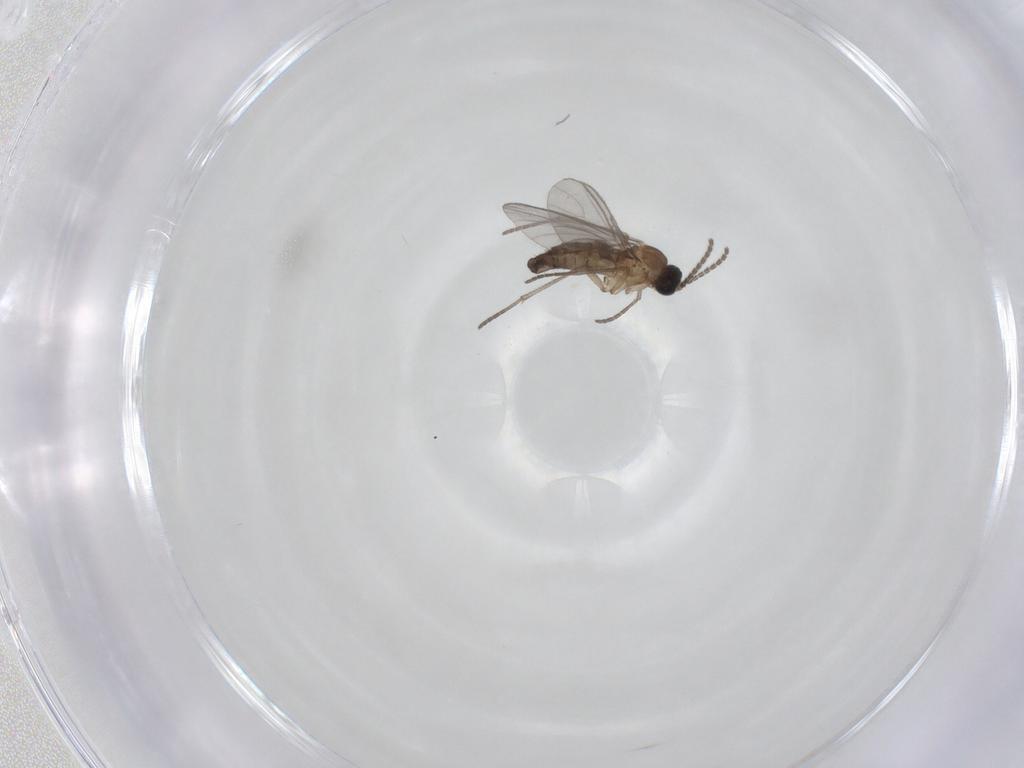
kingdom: Animalia
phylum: Arthropoda
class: Insecta
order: Diptera
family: Sciaridae
